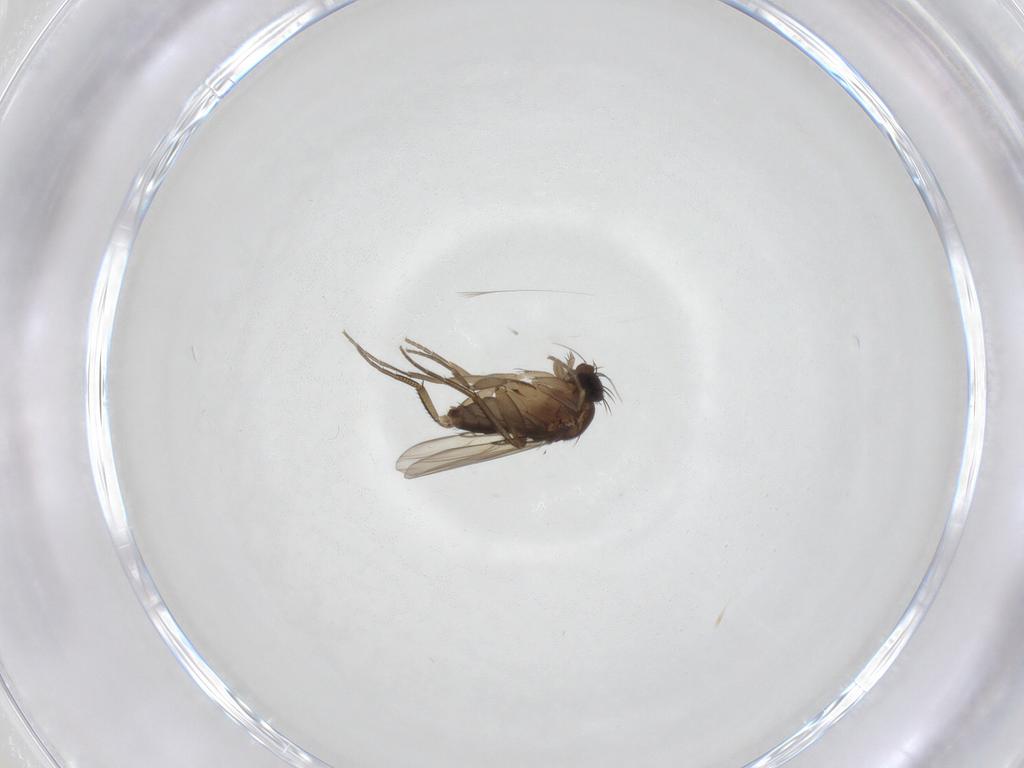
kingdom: Animalia
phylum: Arthropoda
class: Insecta
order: Diptera
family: Phoridae
